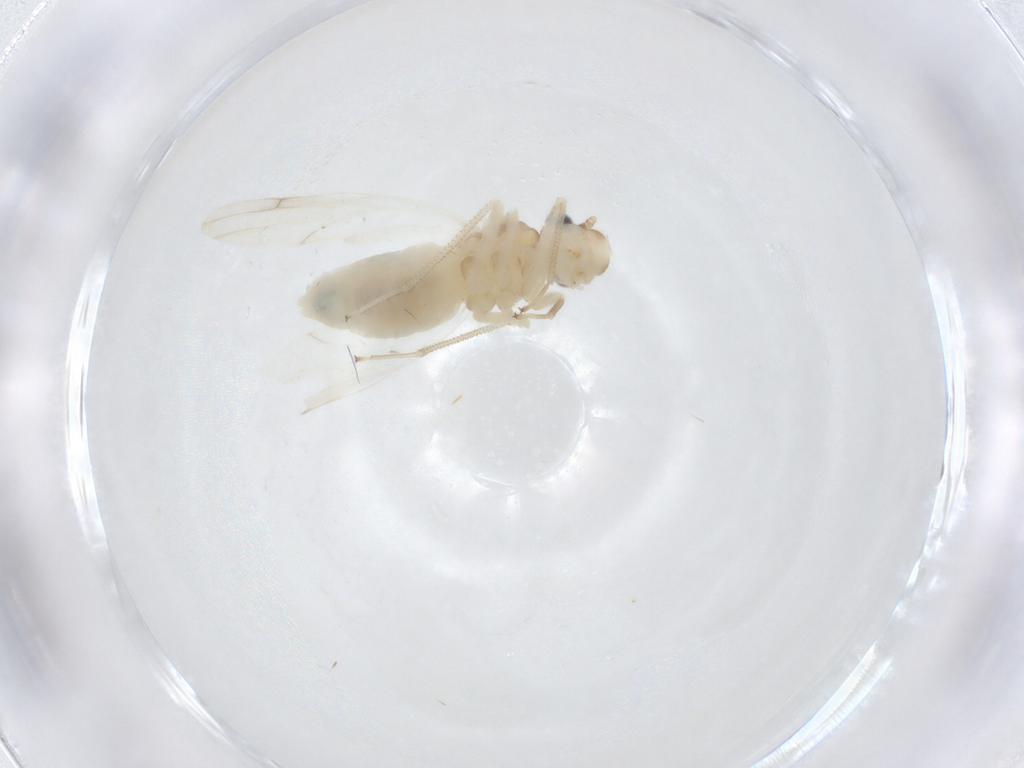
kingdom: Animalia
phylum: Arthropoda
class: Insecta
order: Psocodea
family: Caeciliusidae
